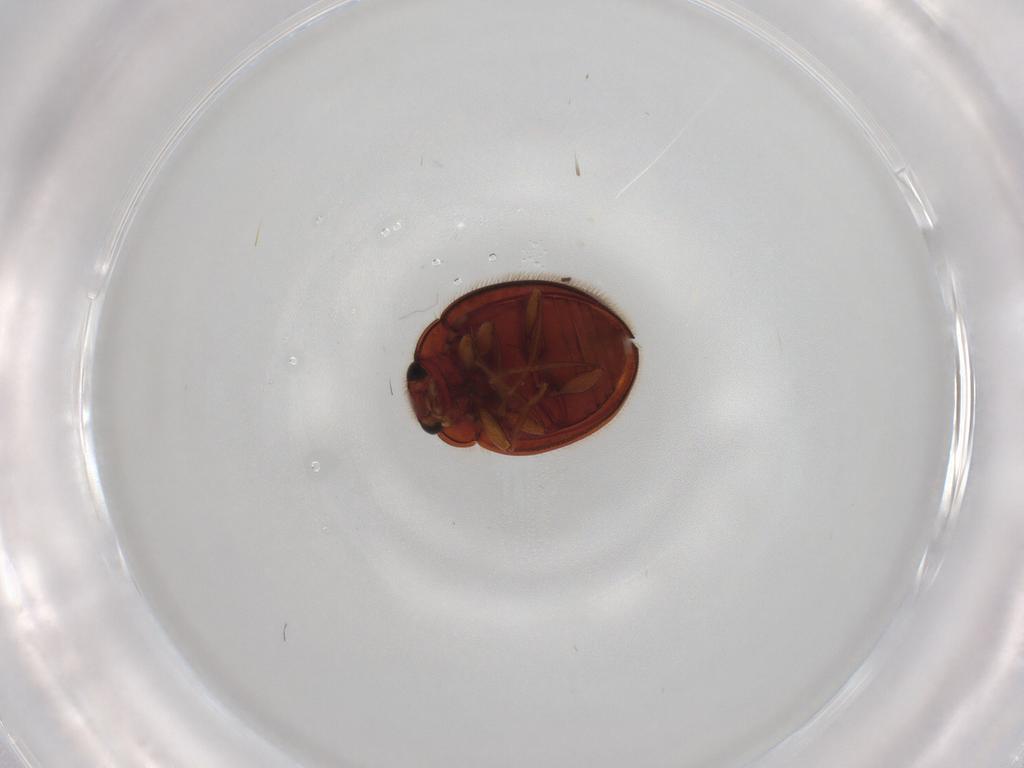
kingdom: Animalia
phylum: Arthropoda
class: Insecta
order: Coleoptera
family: Anamorphidae
